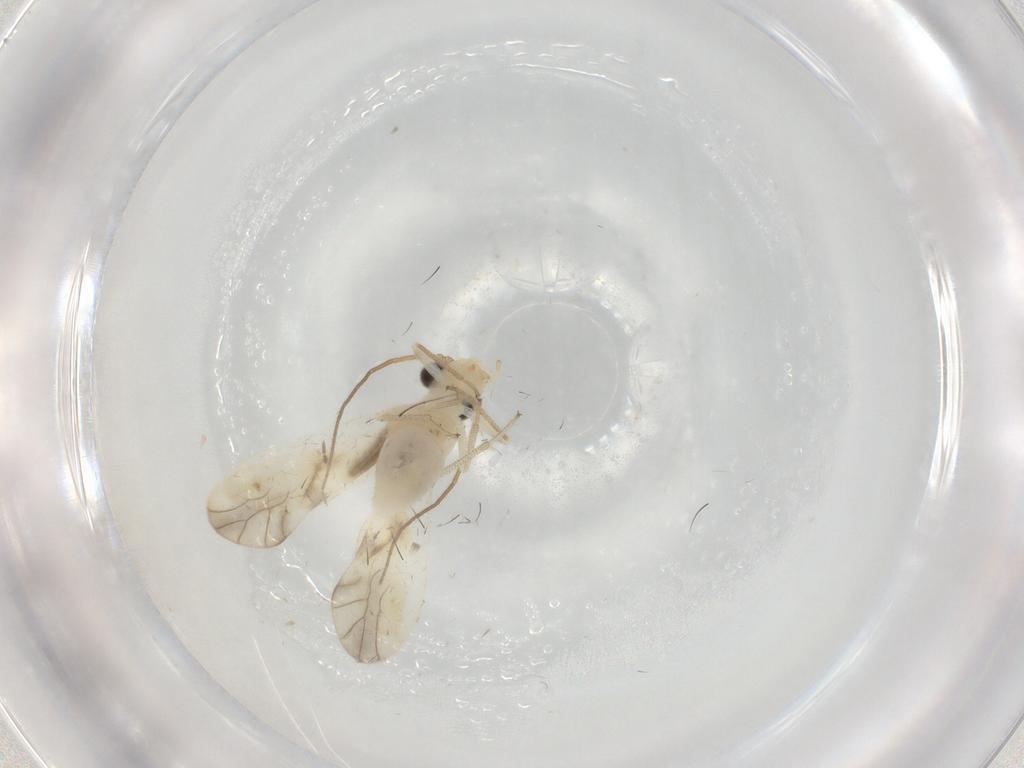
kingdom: Animalia
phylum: Arthropoda
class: Insecta
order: Psocodea
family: Caeciliusidae
